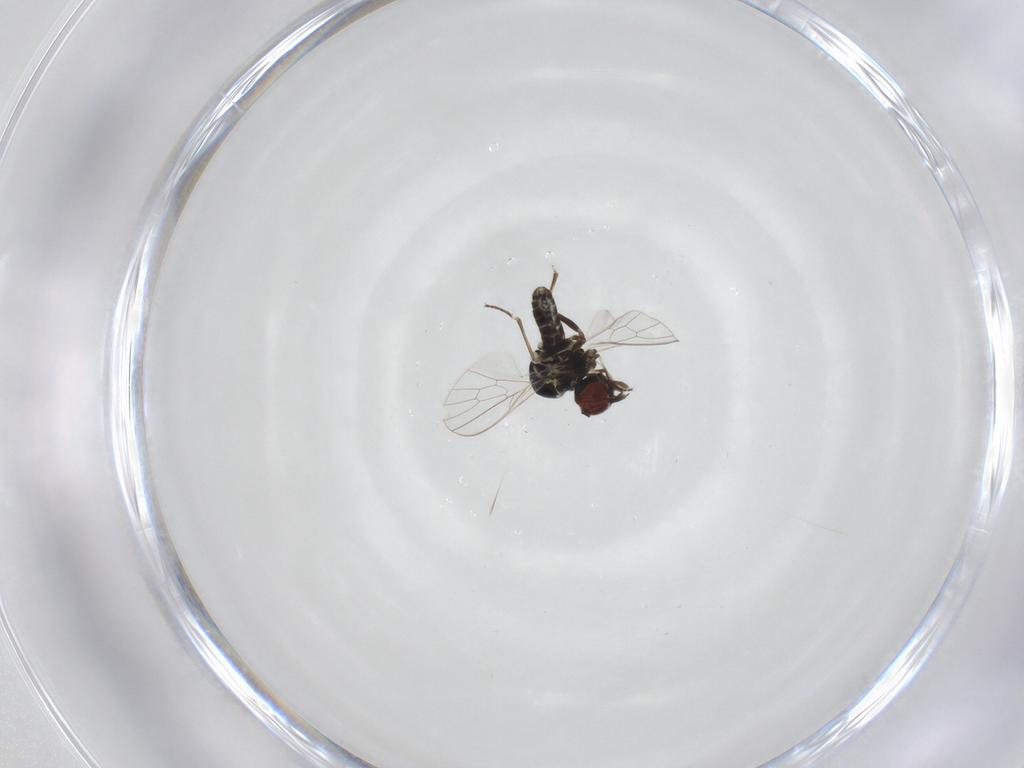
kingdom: Animalia
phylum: Arthropoda
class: Insecta
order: Diptera
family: Mythicomyiidae
